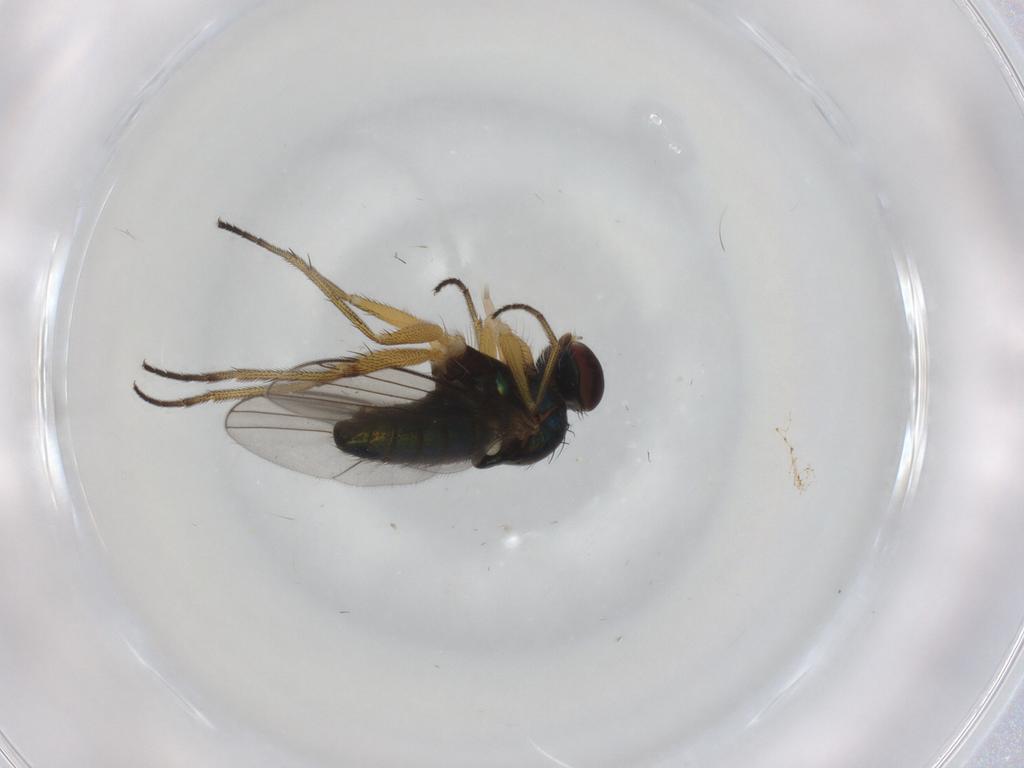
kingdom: Animalia
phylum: Arthropoda
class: Insecta
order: Diptera
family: Dolichopodidae
